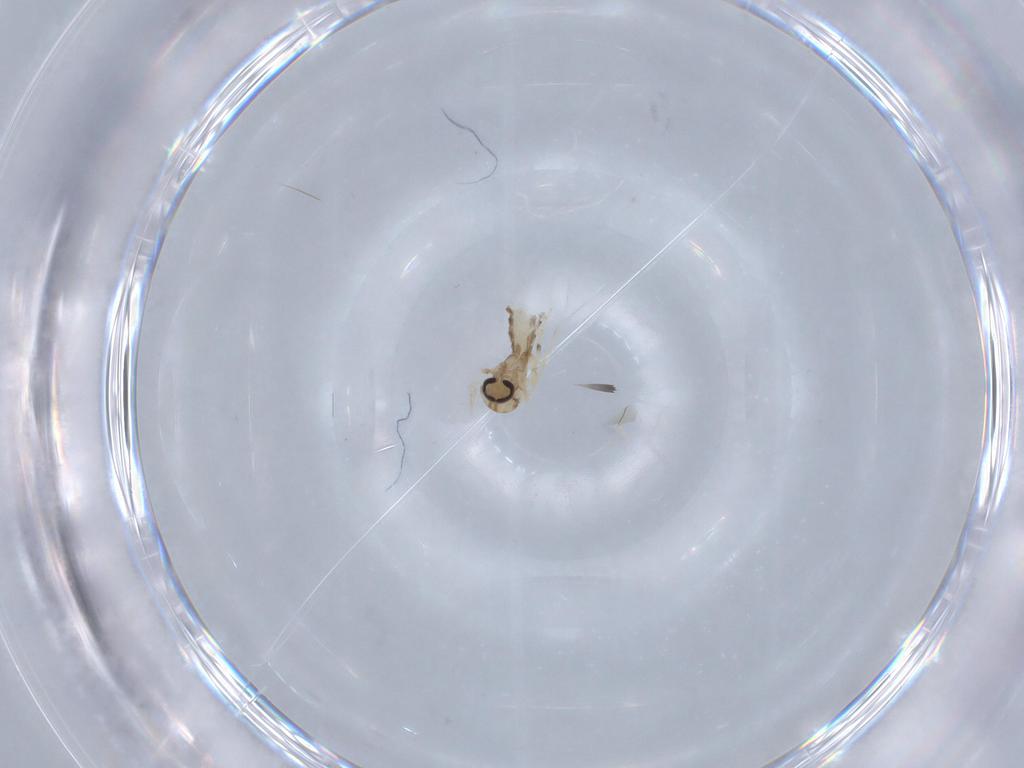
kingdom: Animalia
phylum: Arthropoda
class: Insecta
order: Diptera
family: Ceratopogonidae
